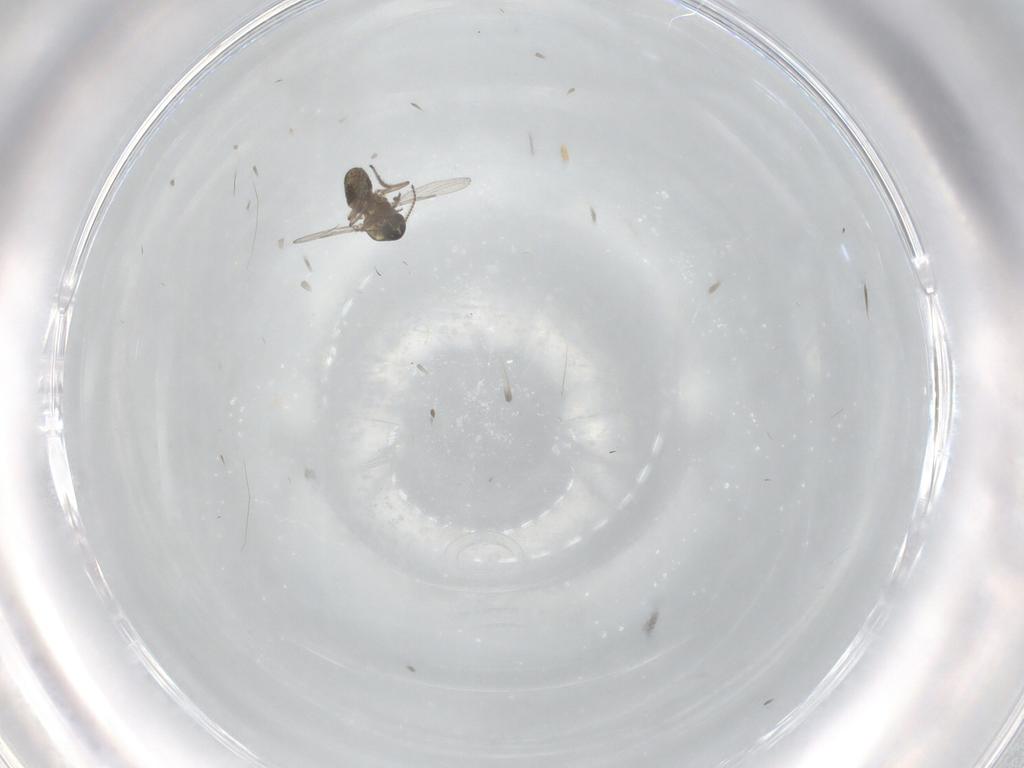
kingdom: Animalia
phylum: Arthropoda
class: Insecta
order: Diptera
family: Ceratopogonidae
